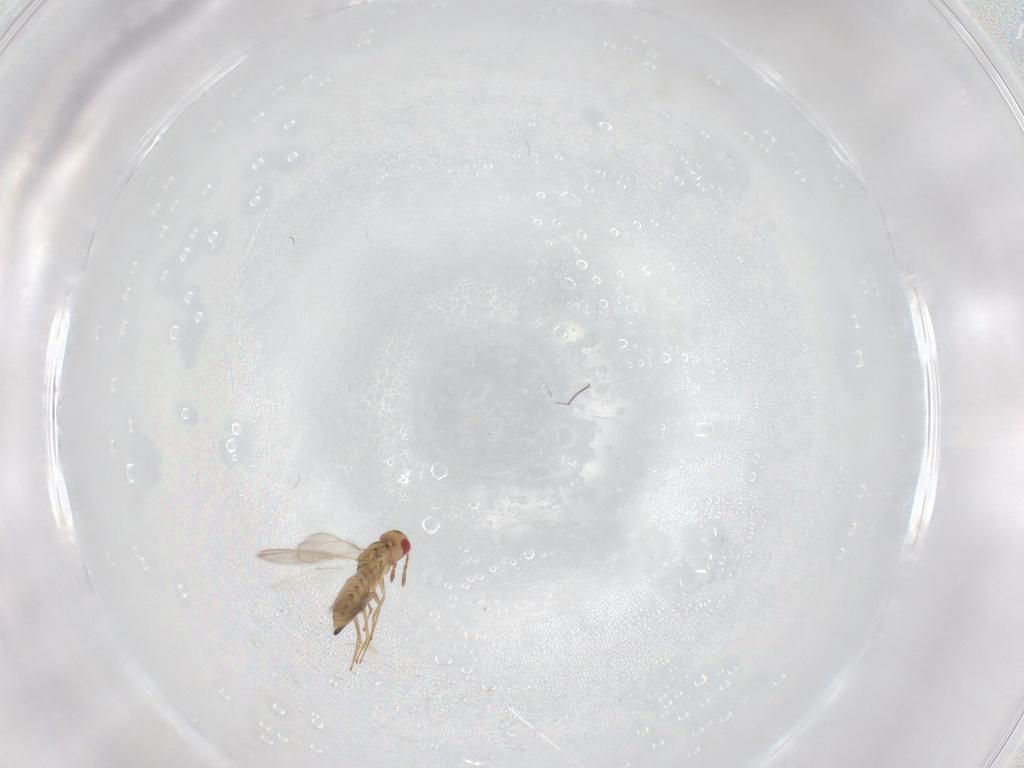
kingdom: Animalia
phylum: Arthropoda
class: Insecta
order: Hymenoptera
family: Eulophidae
